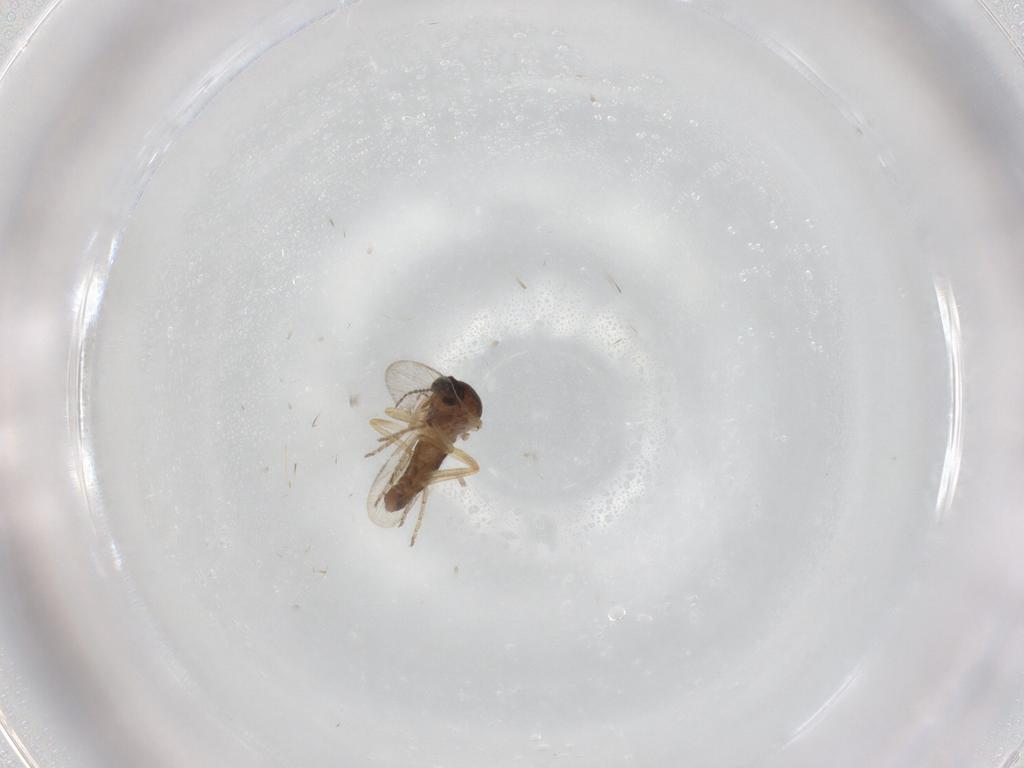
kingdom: Animalia
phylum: Arthropoda
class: Insecta
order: Diptera
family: Ceratopogonidae
